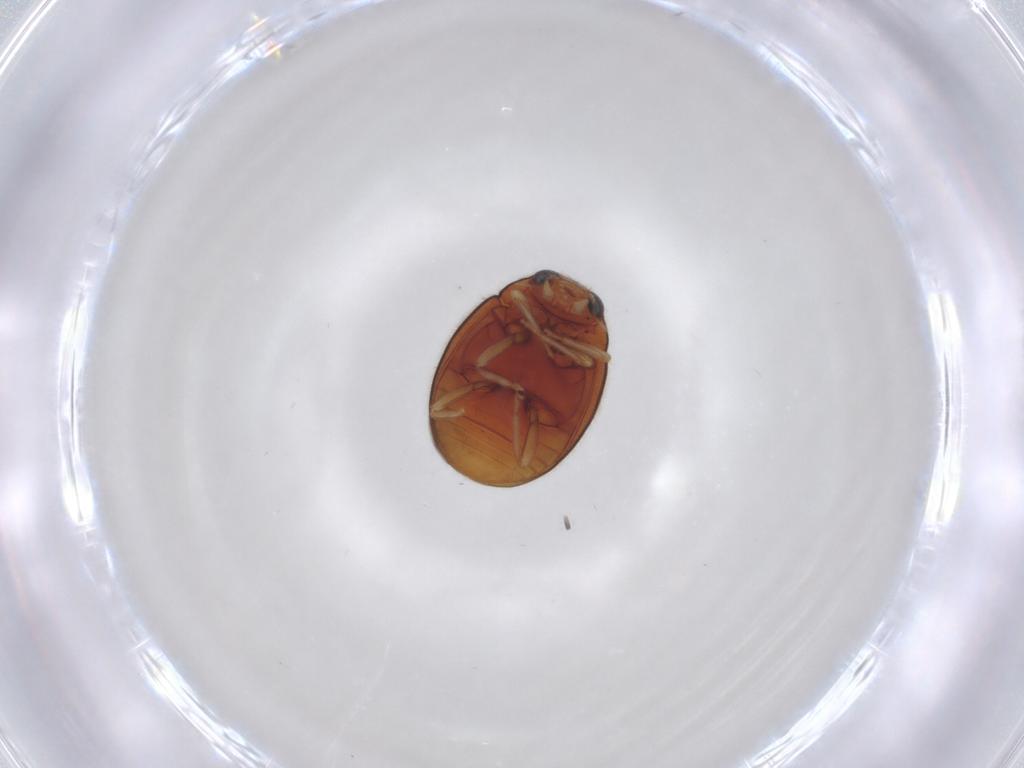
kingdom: Animalia
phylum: Arthropoda
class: Insecta
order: Coleoptera
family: Coccinellidae
